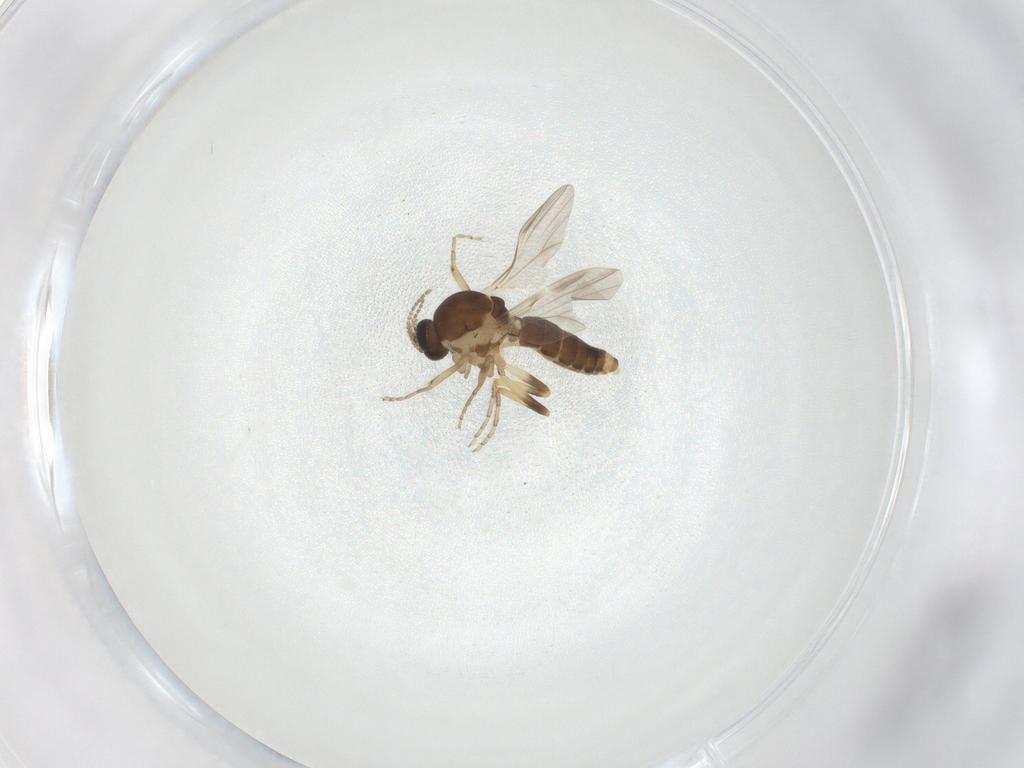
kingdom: Animalia
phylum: Arthropoda
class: Insecta
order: Diptera
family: Ceratopogonidae
